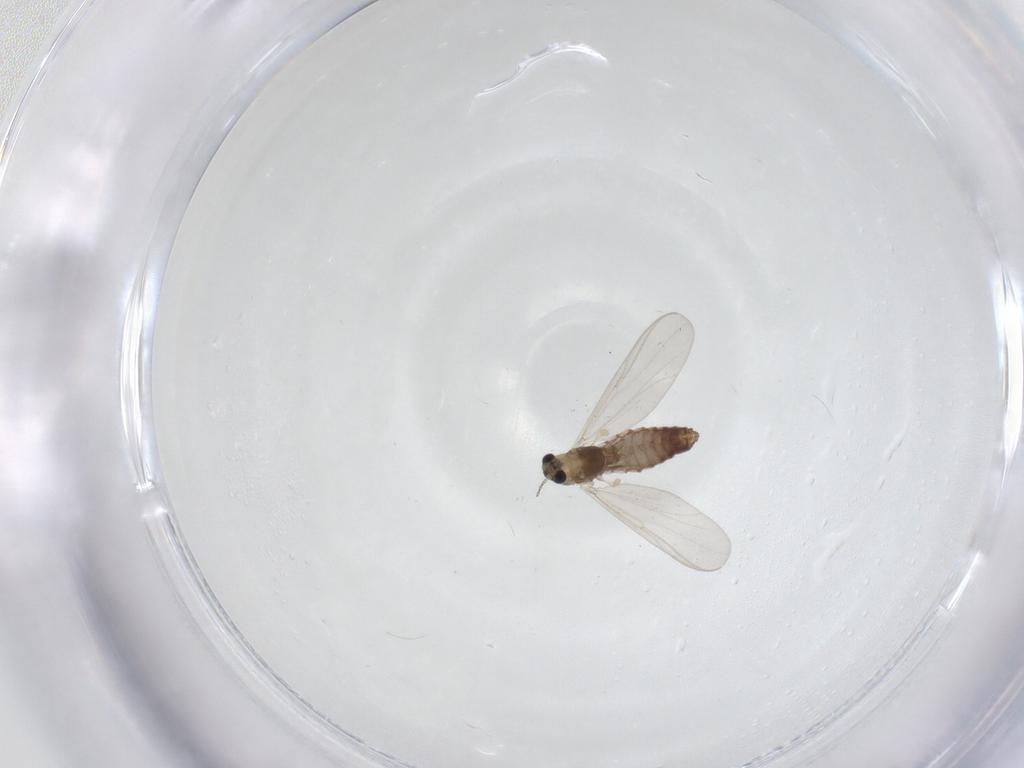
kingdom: Animalia
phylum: Arthropoda
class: Insecta
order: Diptera
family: Chironomidae
